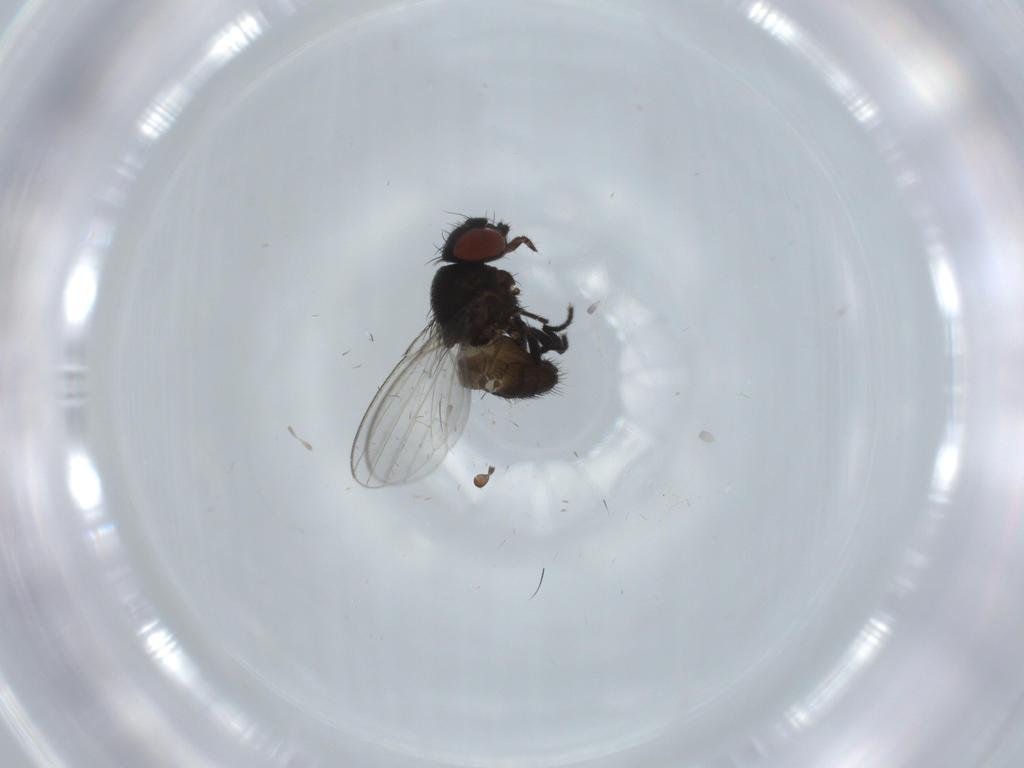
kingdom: Animalia
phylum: Arthropoda
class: Insecta
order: Diptera
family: Milichiidae
